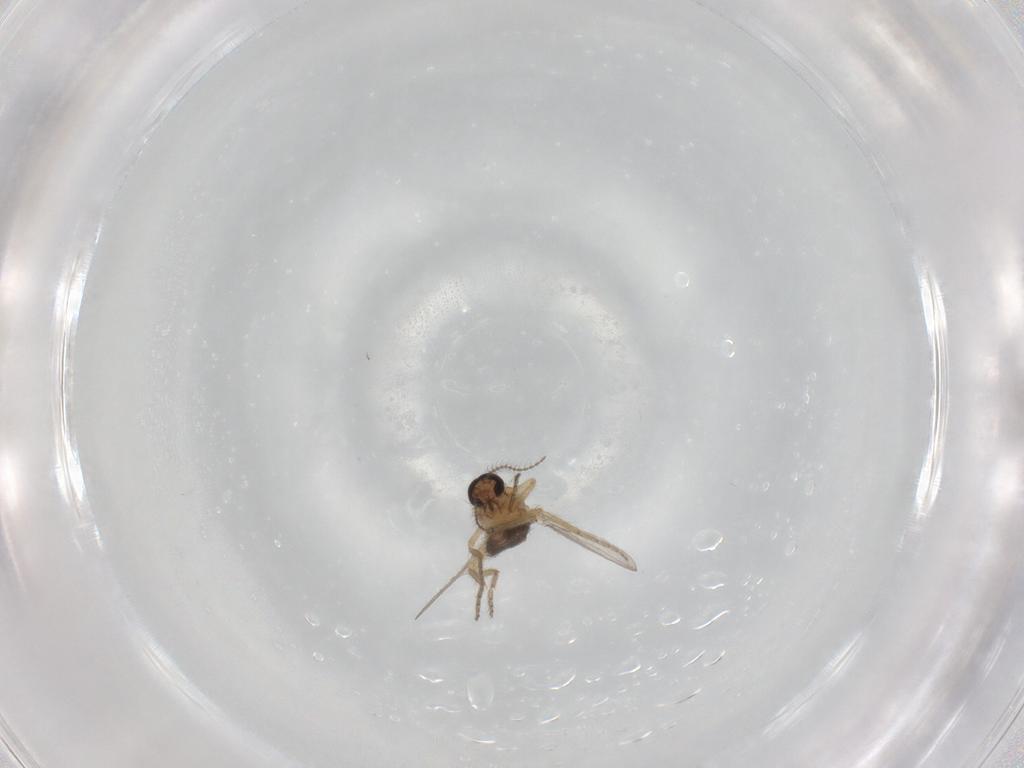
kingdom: Animalia
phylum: Arthropoda
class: Insecta
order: Diptera
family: Ceratopogonidae
